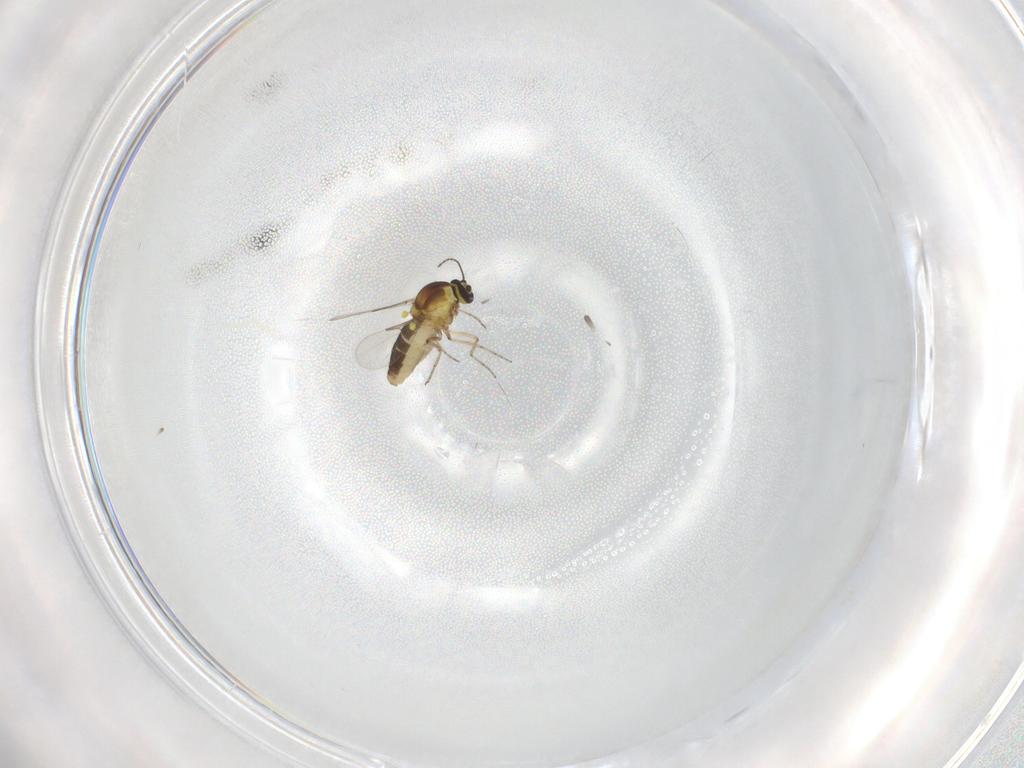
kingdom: Animalia
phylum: Arthropoda
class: Insecta
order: Diptera
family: Ceratopogonidae
